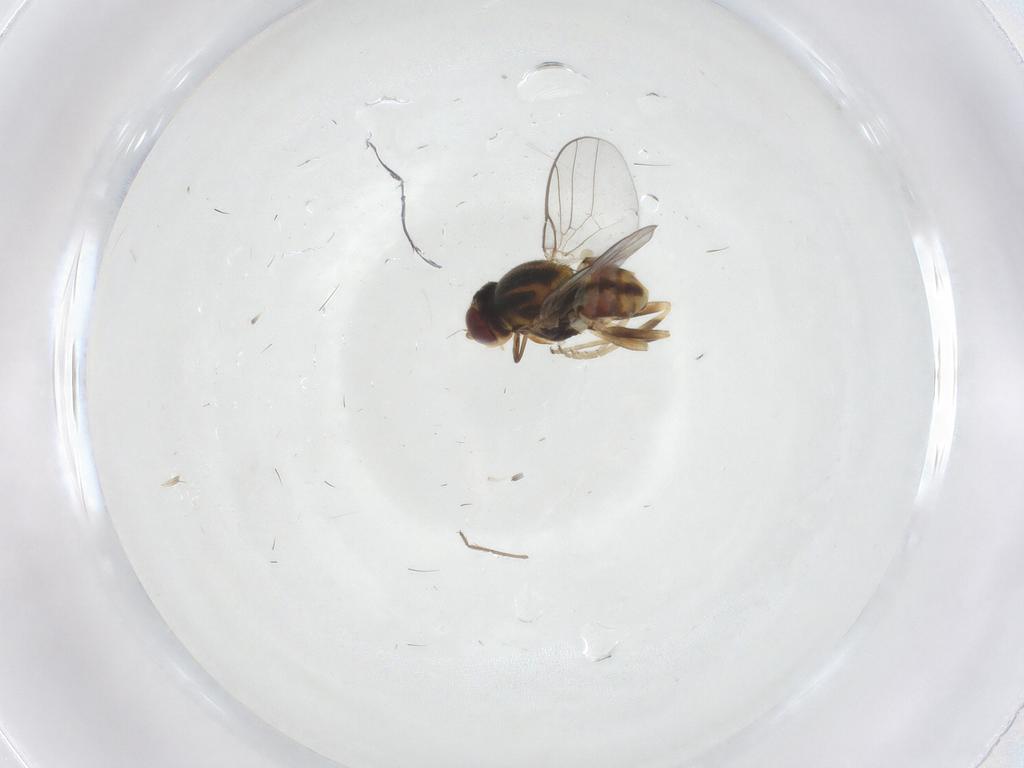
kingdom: Animalia
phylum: Arthropoda
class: Insecta
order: Diptera
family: Chloropidae
